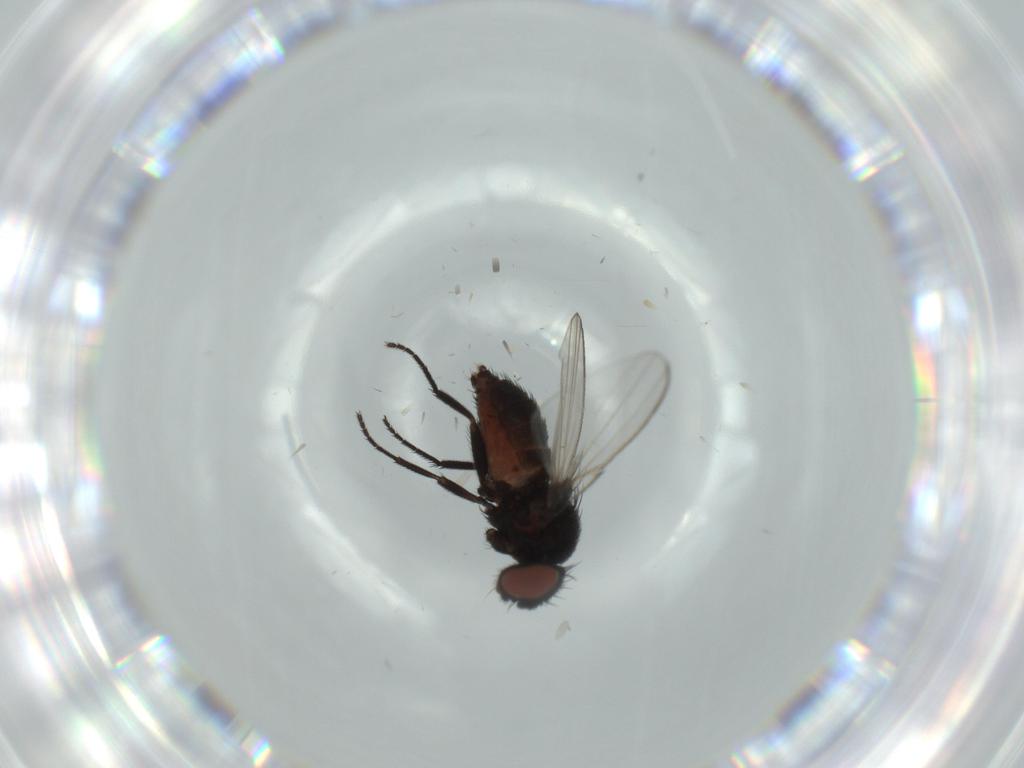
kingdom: Animalia
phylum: Arthropoda
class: Insecta
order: Diptera
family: Milichiidae
